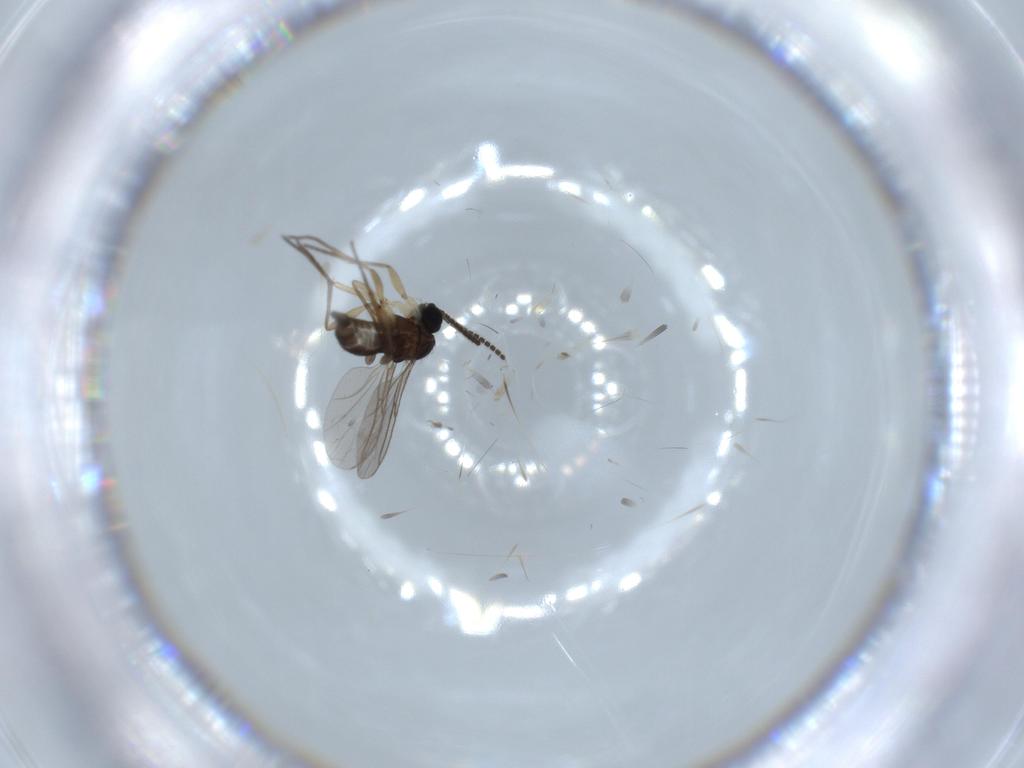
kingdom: Animalia
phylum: Arthropoda
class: Insecta
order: Diptera
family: Sciaridae
